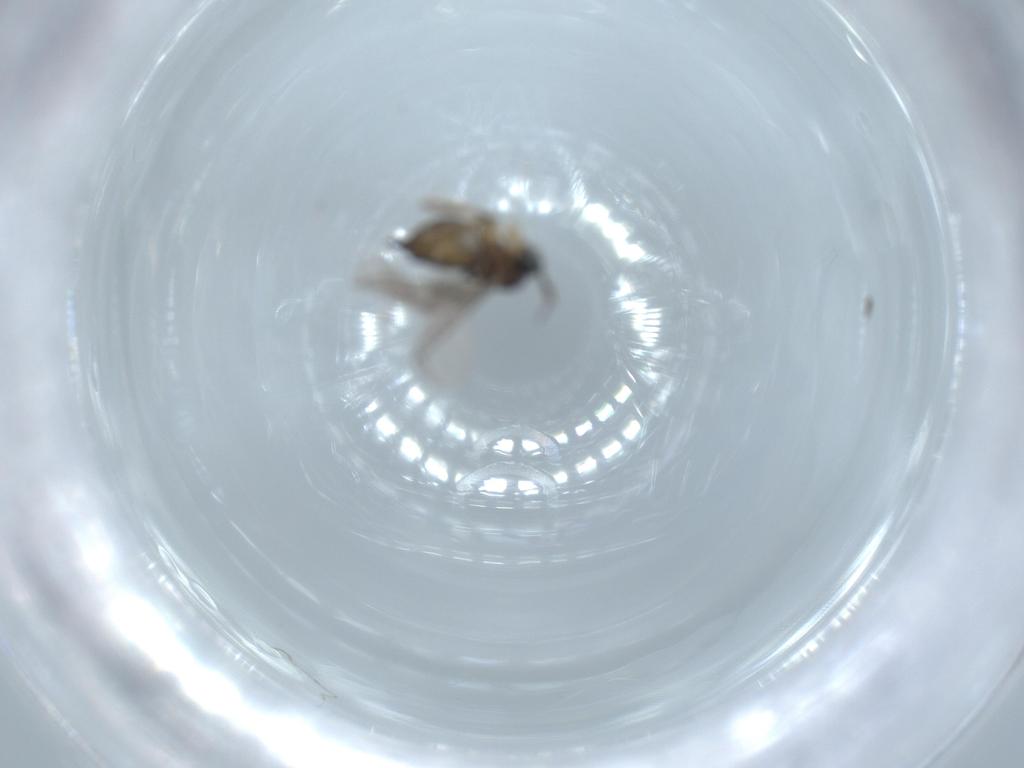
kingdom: Animalia
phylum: Arthropoda
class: Insecta
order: Diptera
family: Sciaridae
